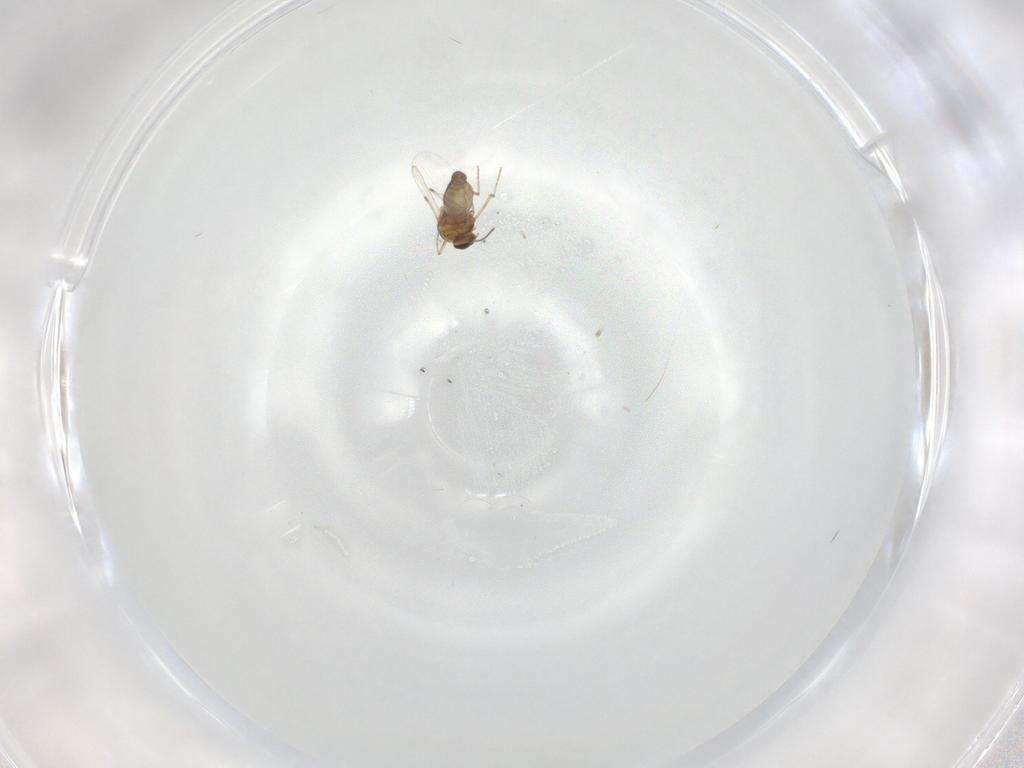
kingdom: Animalia
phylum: Arthropoda
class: Insecta
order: Diptera
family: Ceratopogonidae
